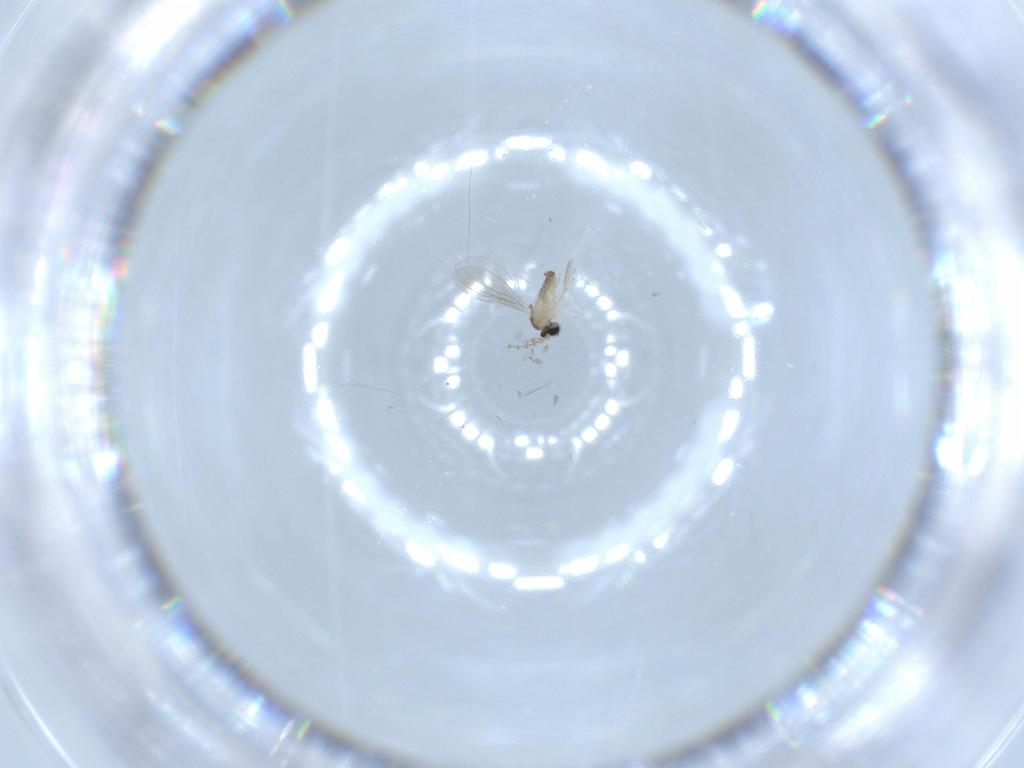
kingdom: Animalia
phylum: Arthropoda
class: Insecta
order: Diptera
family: Cecidomyiidae
